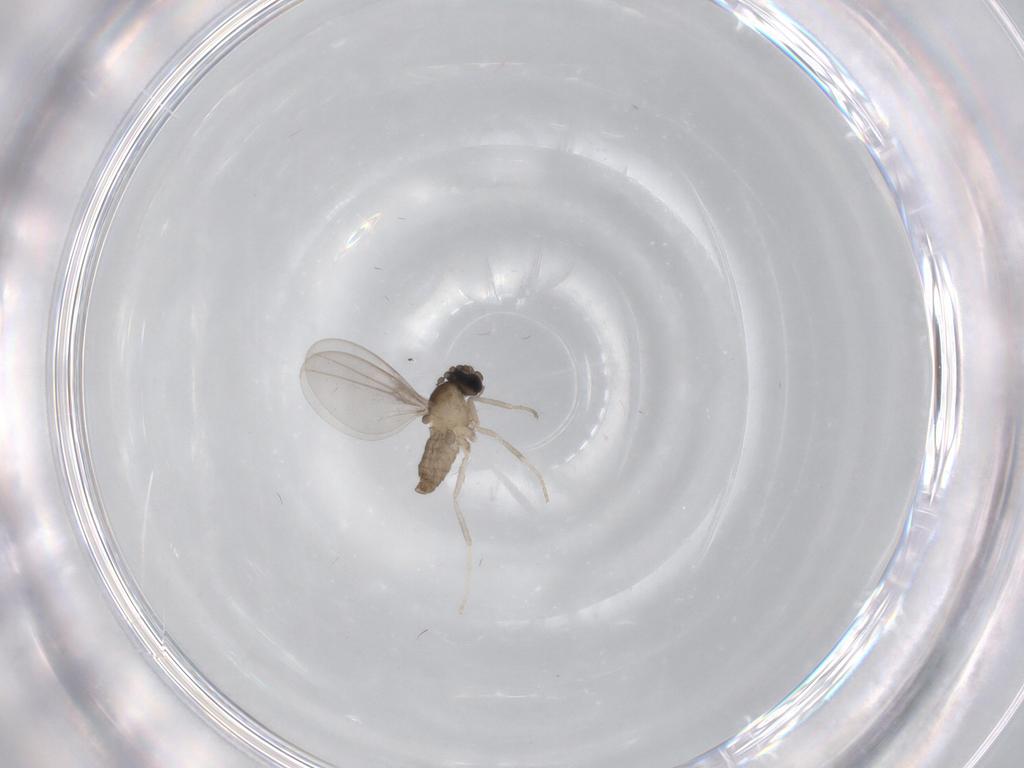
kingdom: Animalia
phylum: Arthropoda
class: Insecta
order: Diptera
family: Cecidomyiidae
